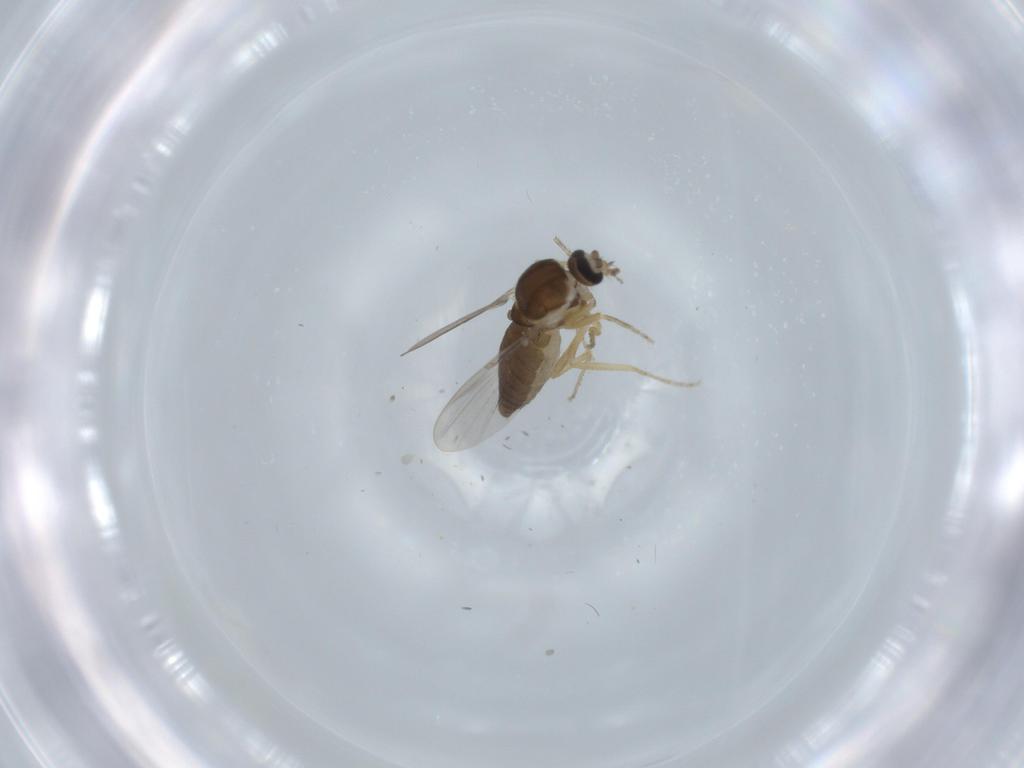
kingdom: Animalia
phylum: Arthropoda
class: Insecta
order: Diptera
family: Ceratopogonidae
